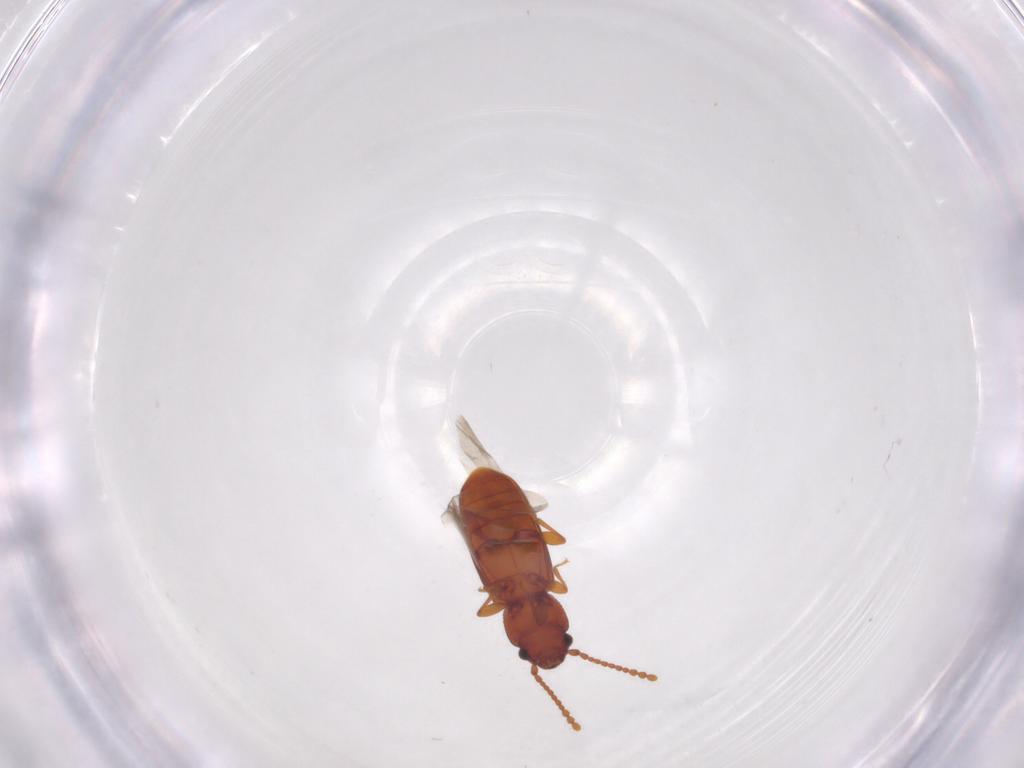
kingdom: Animalia
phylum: Arthropoda
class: Insecta
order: Coleoptera
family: Laemophloeidae
